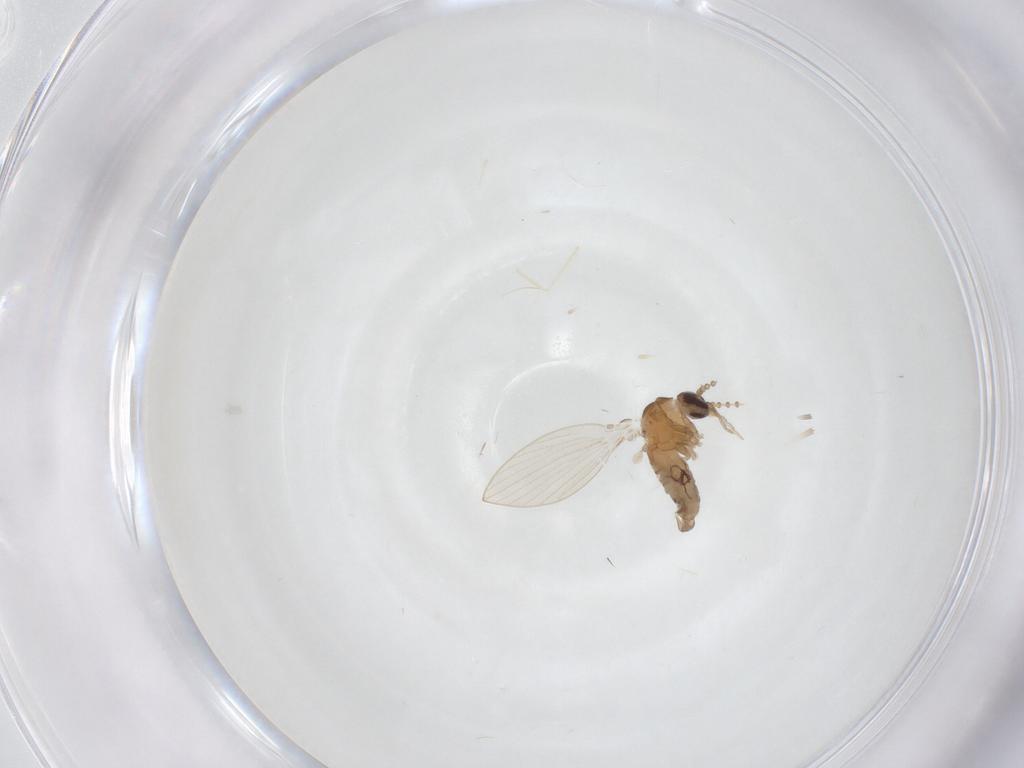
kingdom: Animalia
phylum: Arthropoda
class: Insecta
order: Diptera
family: Psychodidae
